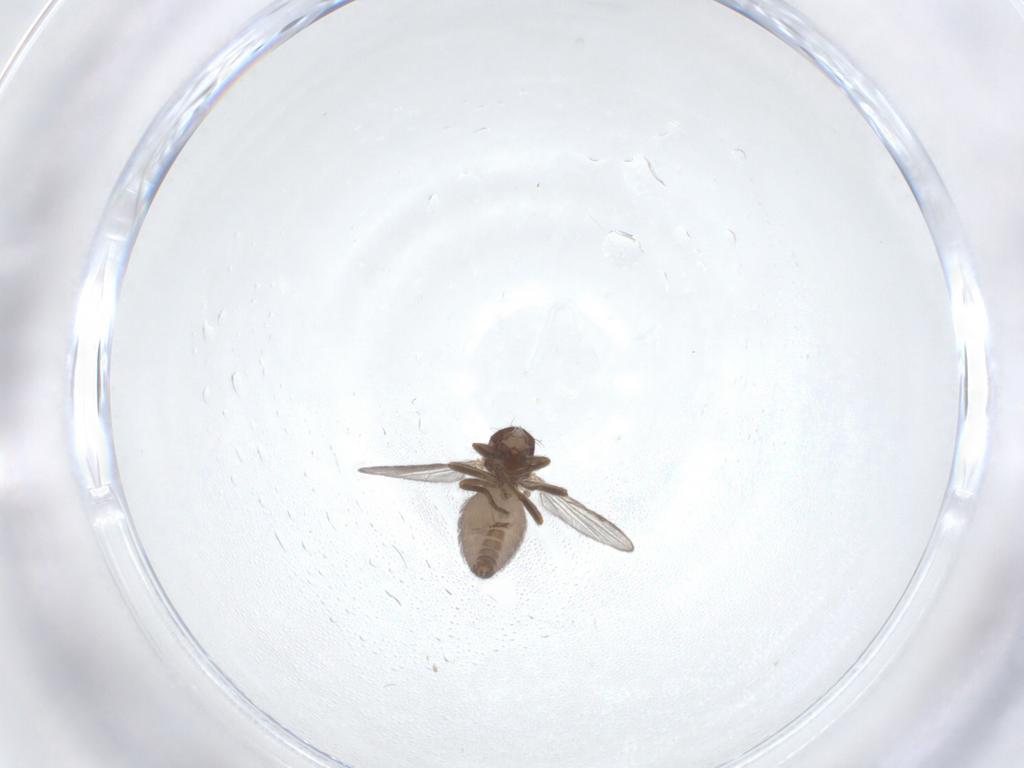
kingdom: Animalia
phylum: Arthropoda
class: Insecta
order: Diptera
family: Ceratopogonidae
